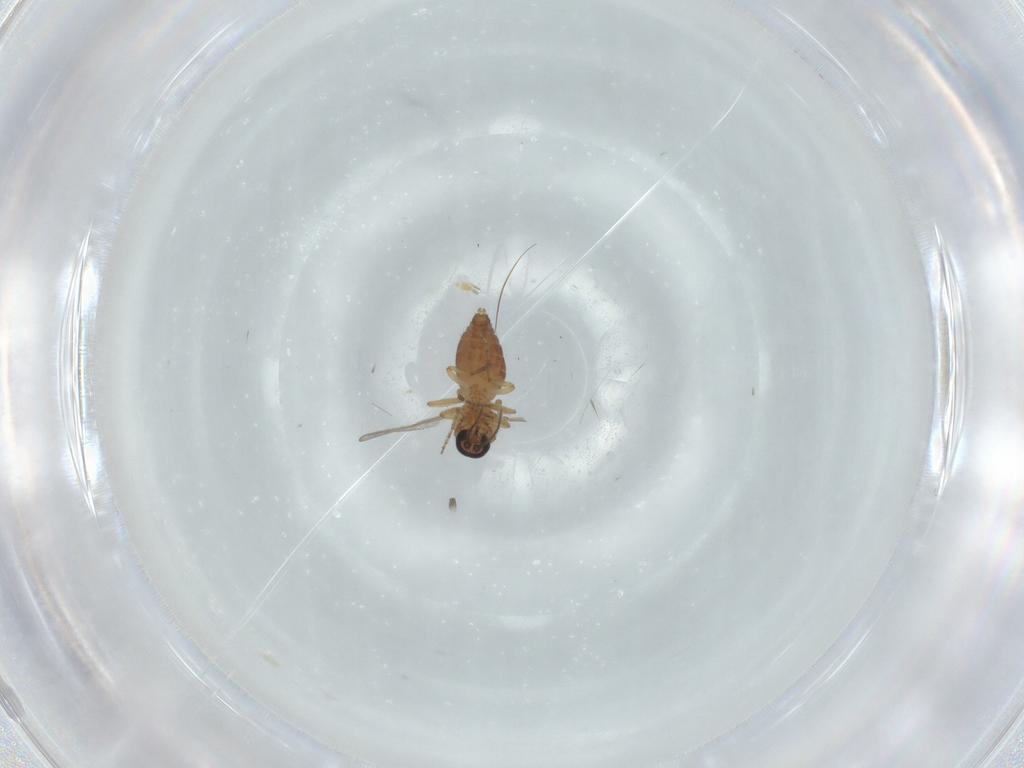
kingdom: Animalia
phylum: Arthropoda
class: Insecta
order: Diptera
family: Ceratopogonidae
